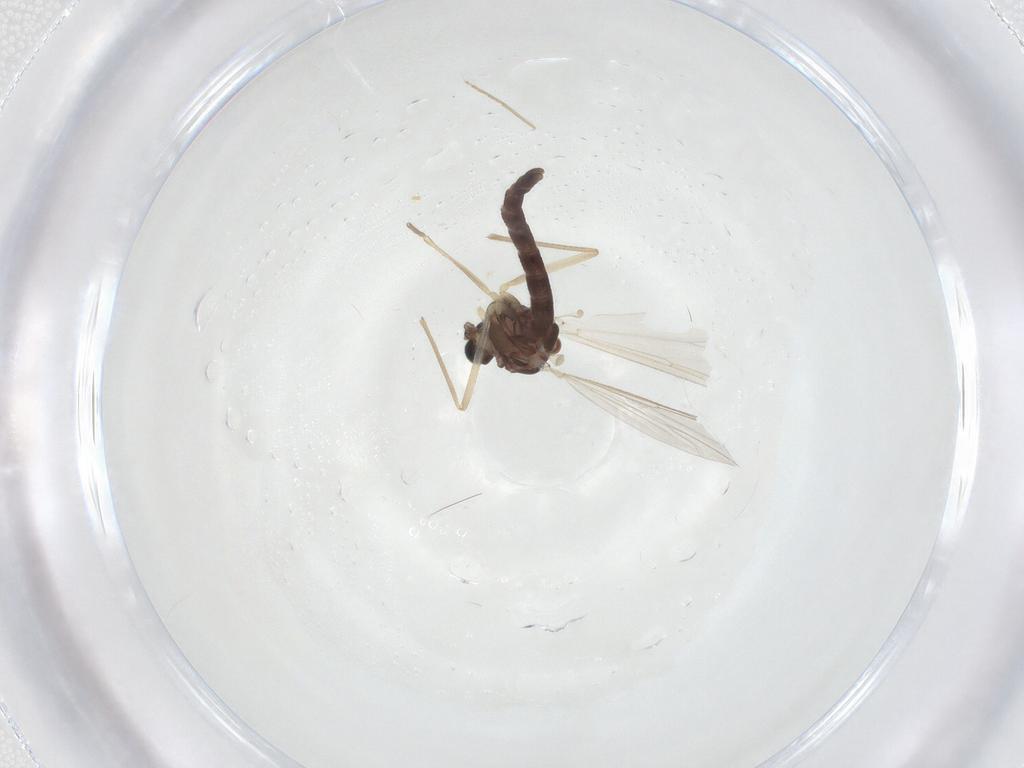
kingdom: Animalia
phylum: Arthropoda
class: Insecta
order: Diptera
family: Chironomidae
